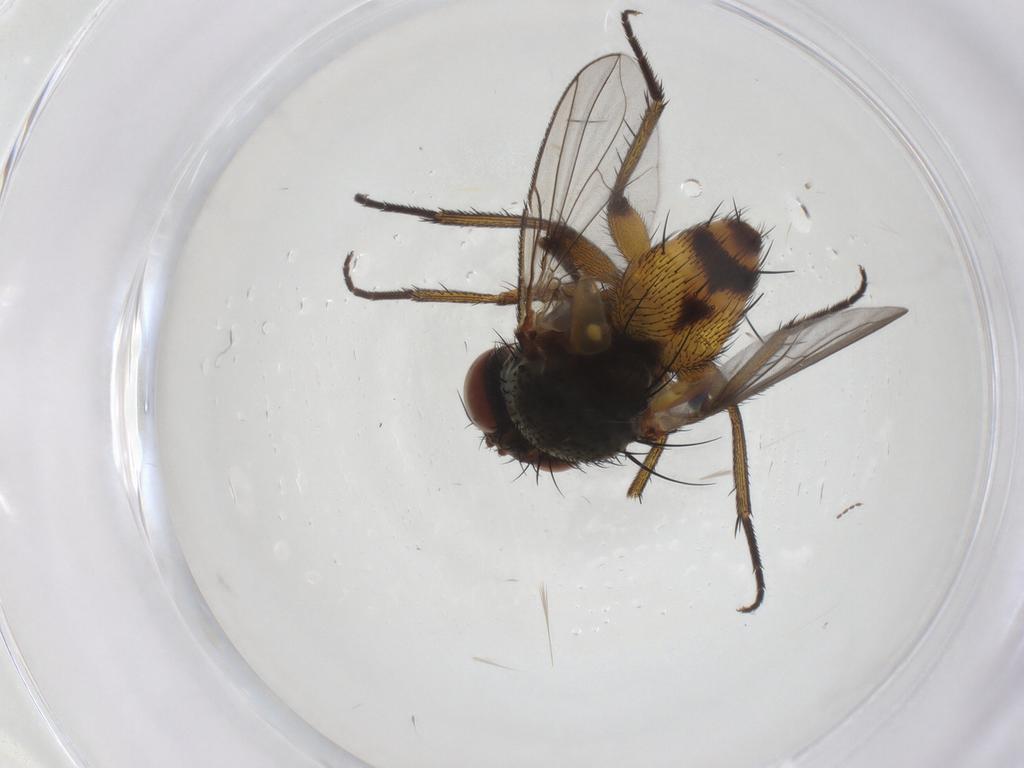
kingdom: Animalia
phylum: Arthropoda
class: Insecta
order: Diptera
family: Tachinidae
